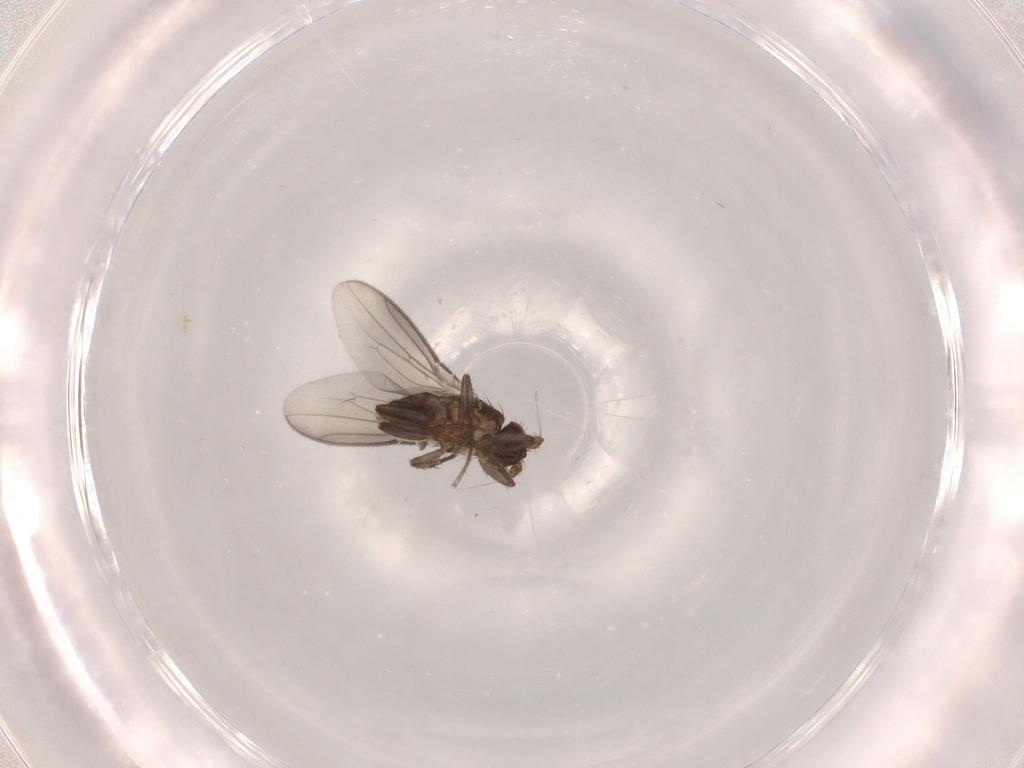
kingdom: Animalia
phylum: Arthropoda
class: Insecta
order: Diptera
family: Sphaeroceridae
